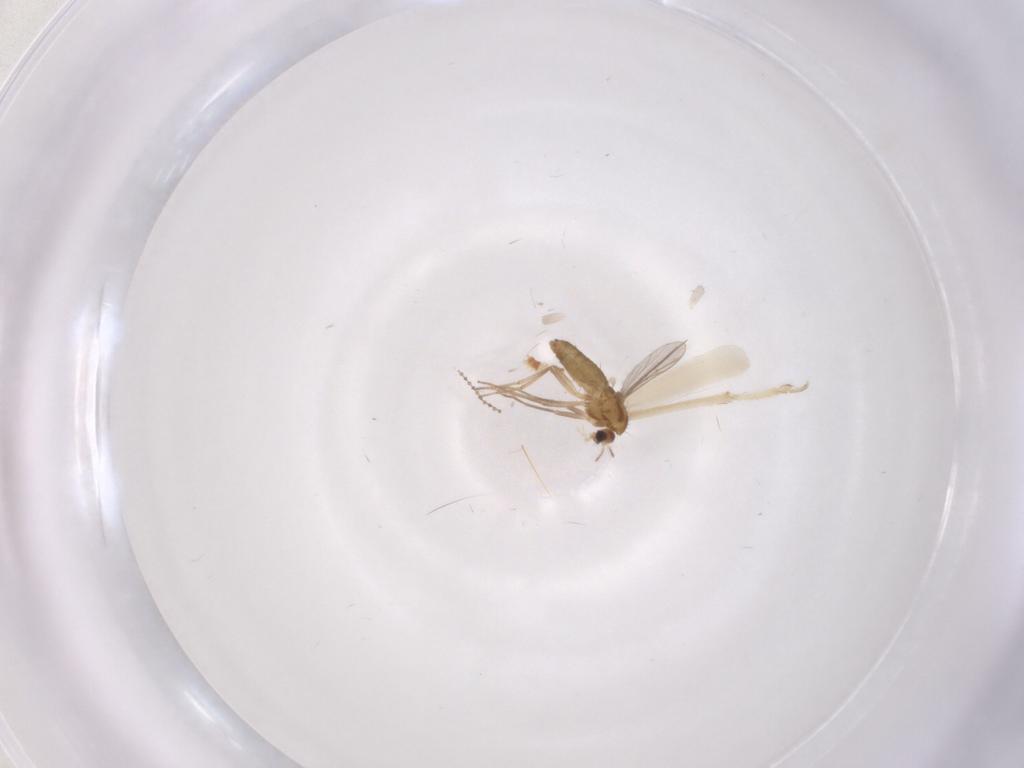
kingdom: Animalia
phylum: Arthropoda
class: Insecta
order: Diptera
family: Chironomidae
